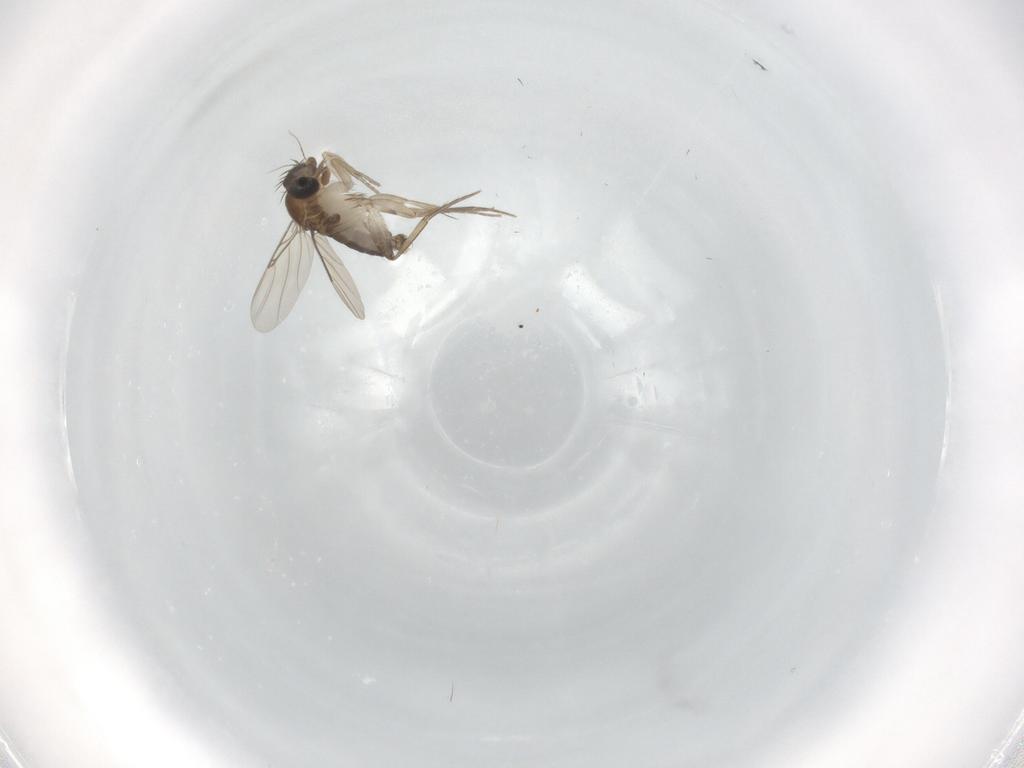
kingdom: Animalia
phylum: Arthropoda
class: Insecta
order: Diptera
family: Phoridae
